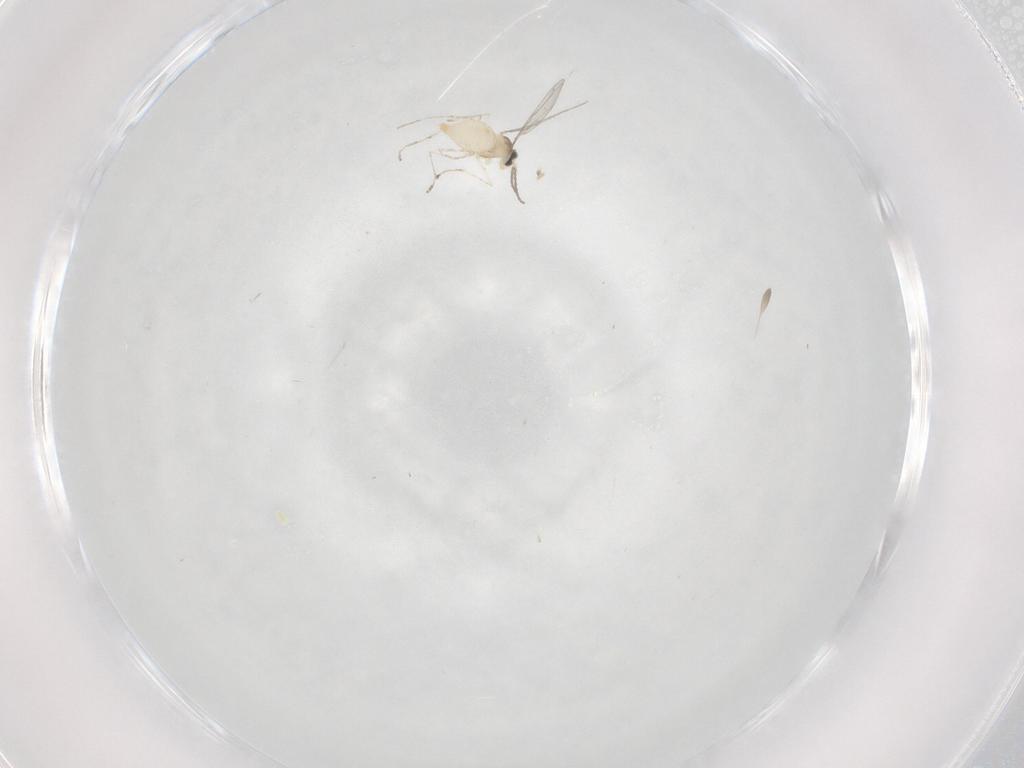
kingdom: Animalia
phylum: Arthropoda
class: Insecta
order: Diptera
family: Cecidomyiidae
